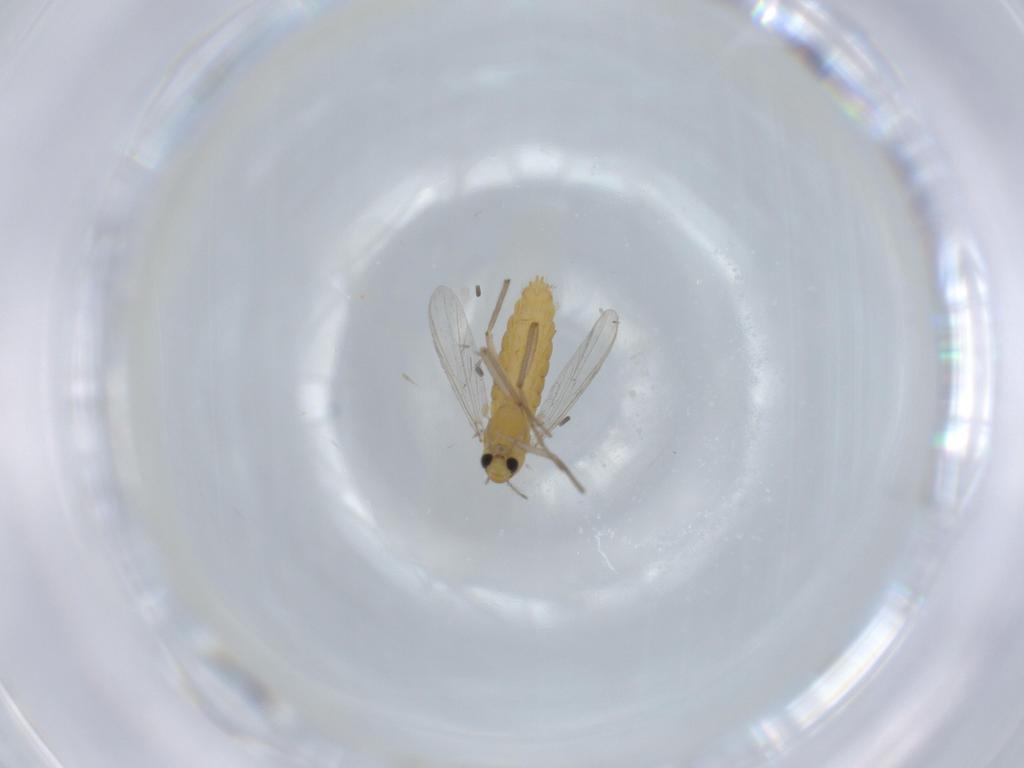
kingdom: Animalia
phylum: Arthropoda
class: Insecta
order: Diptera
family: Chironomidae
